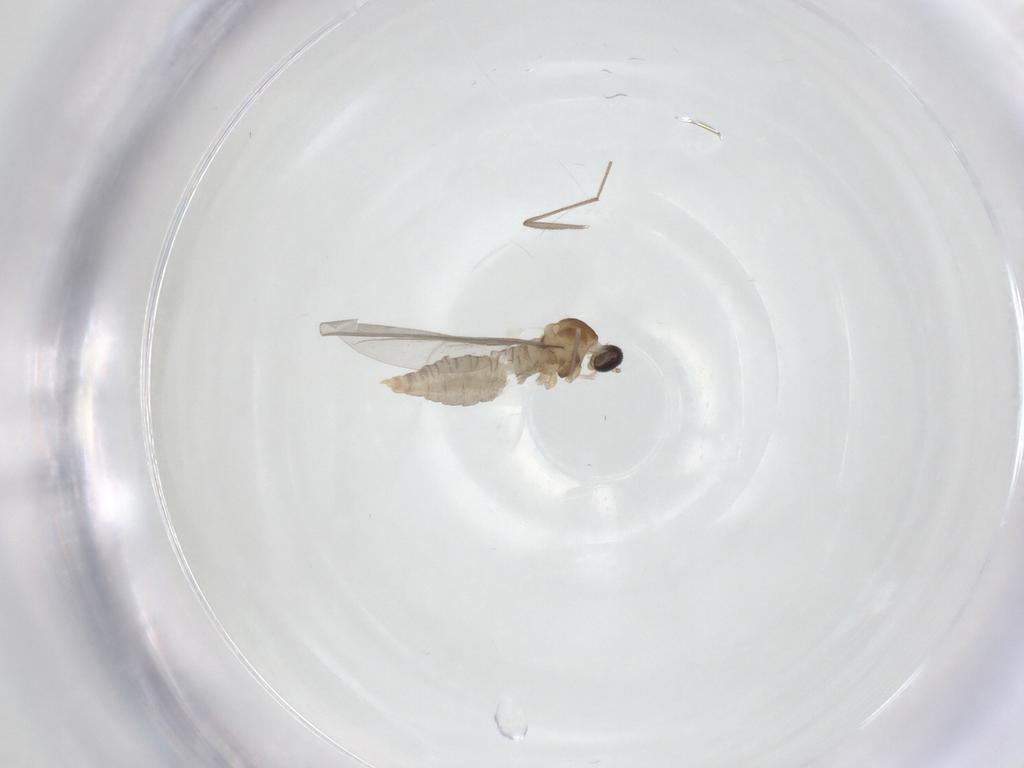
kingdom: Animalia
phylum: Arthropoda
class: Insecta
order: Diptera
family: Cecidomyiidae
